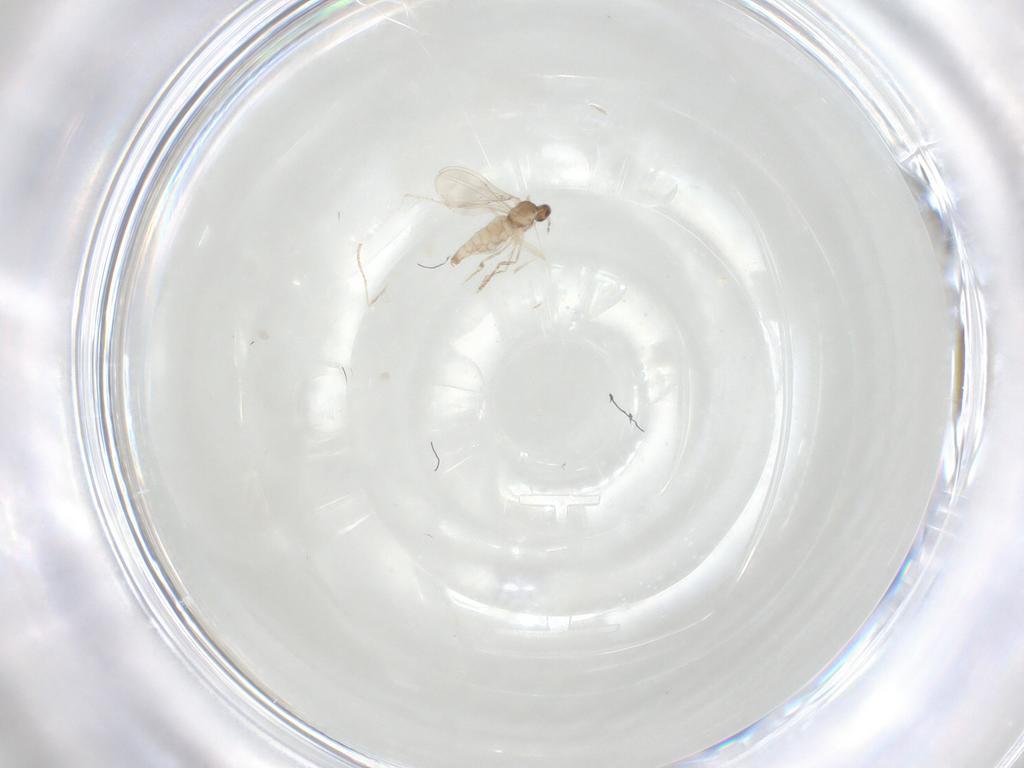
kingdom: Animalia
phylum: Arthropoda
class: Insecta
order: Diptera
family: Cecidomyiidae
